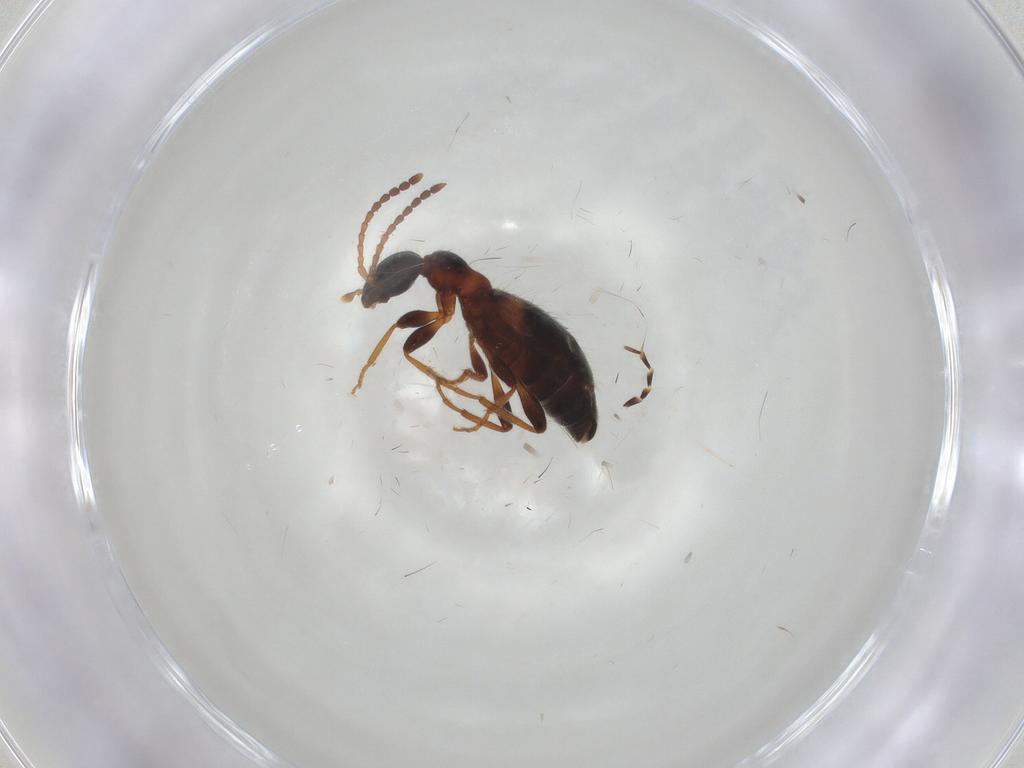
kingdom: Animalia
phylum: Arthropoda
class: Insecta
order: Coleoptera
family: Anthicidae
